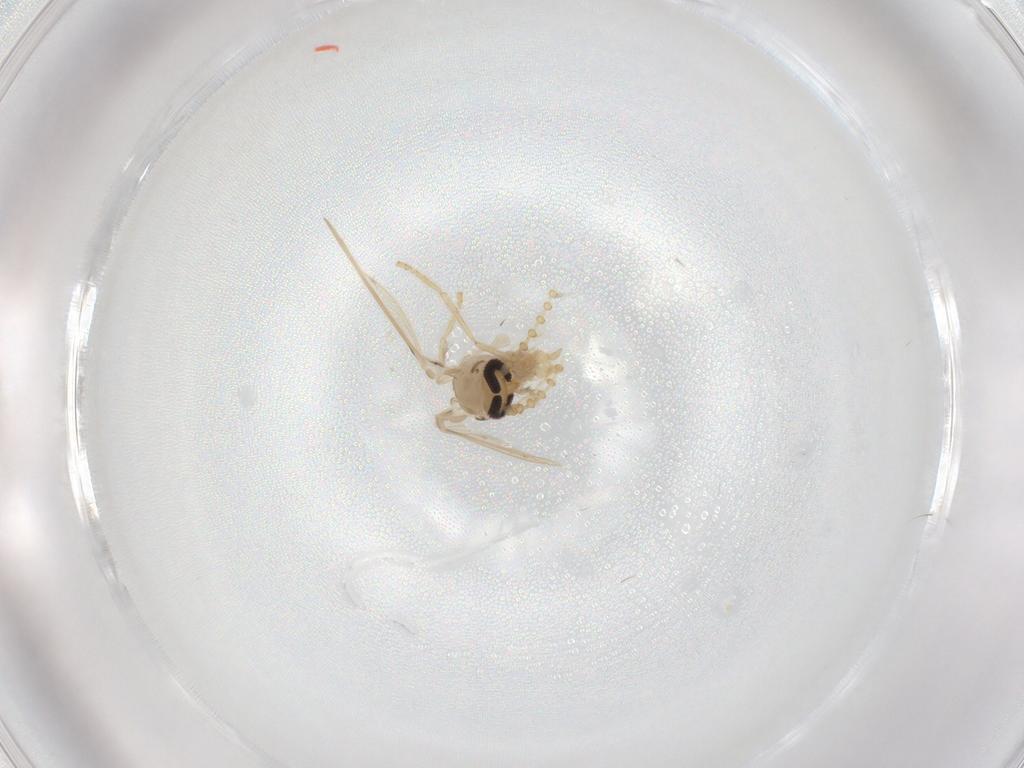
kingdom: Animalia
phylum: Arthropoda
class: Insecta
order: Diptera
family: Psychodidae
